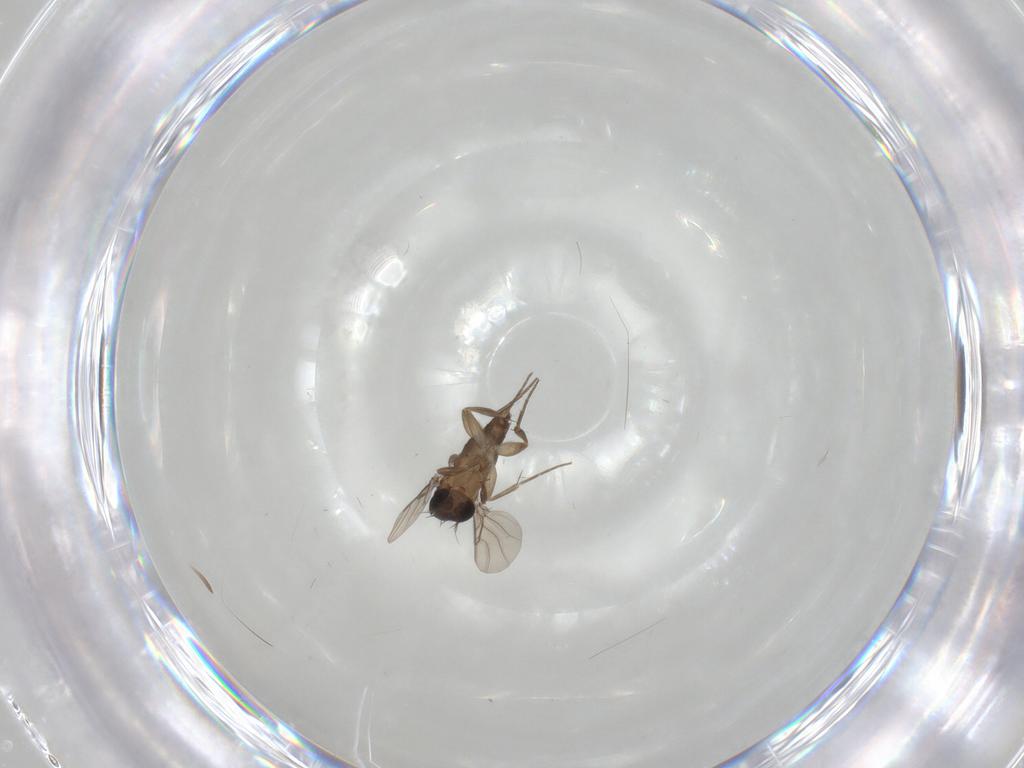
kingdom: Animalia
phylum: Arthropoda
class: Insecta
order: Diptera
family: Phoridae
